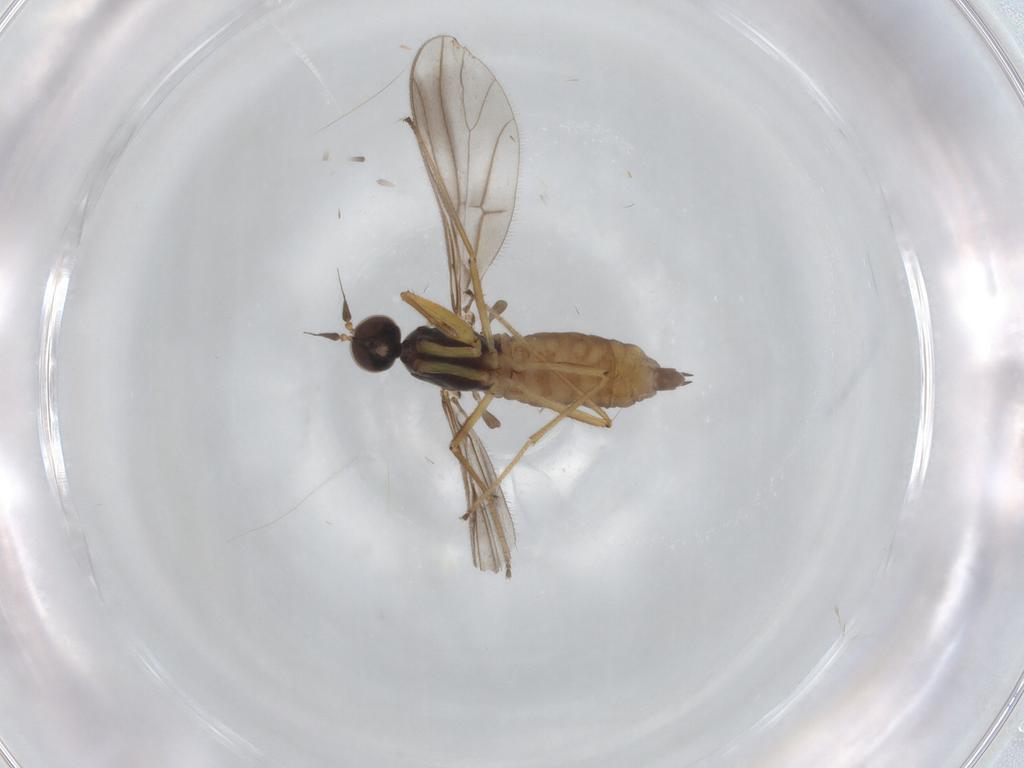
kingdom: Animalia
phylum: Arthropoda
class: Insecta
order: Diptera
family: Empididae
